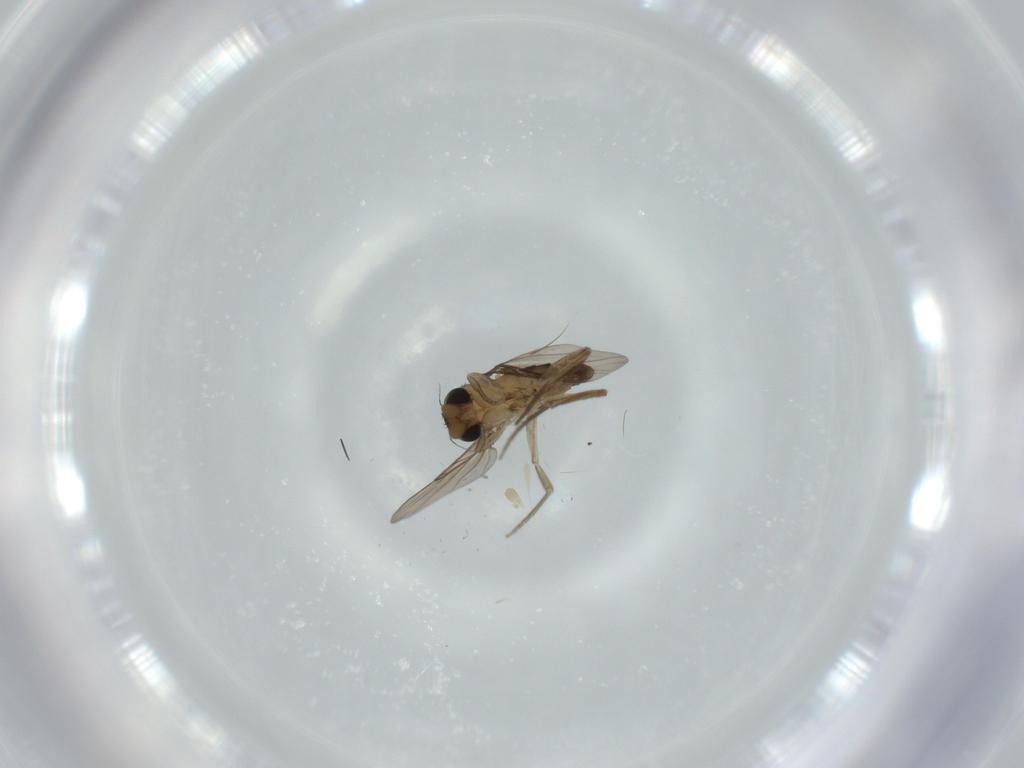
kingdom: Animalia
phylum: Arthropoda
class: Insecta
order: Diptera
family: Phoridae
